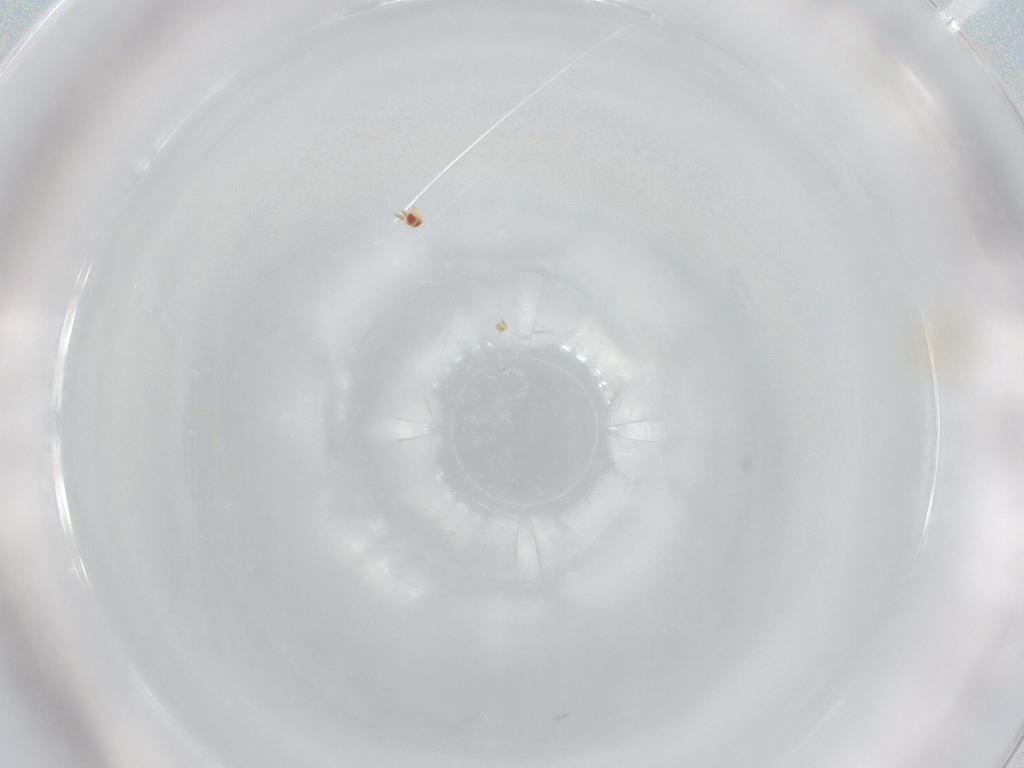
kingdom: Animalia
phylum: Arthropoda
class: Insecta
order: Hymenoptera
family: Trichogrammatidae
